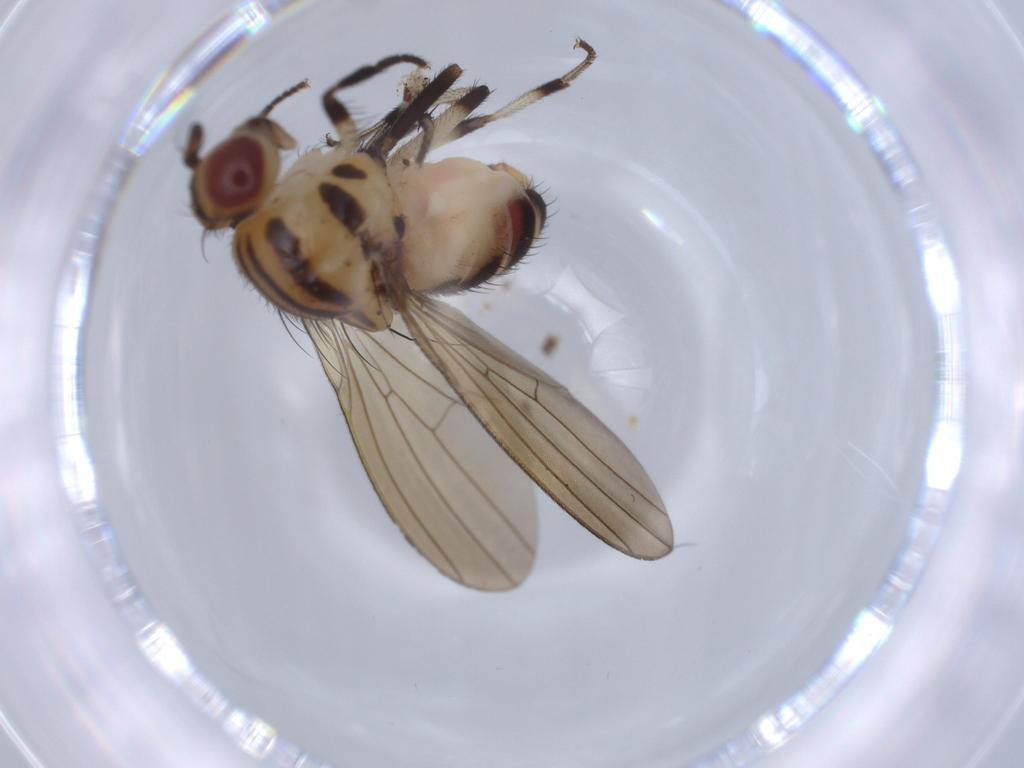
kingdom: Animalia
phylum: Arthropoda
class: Insecta
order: Diptera
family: Lauxaniidae
